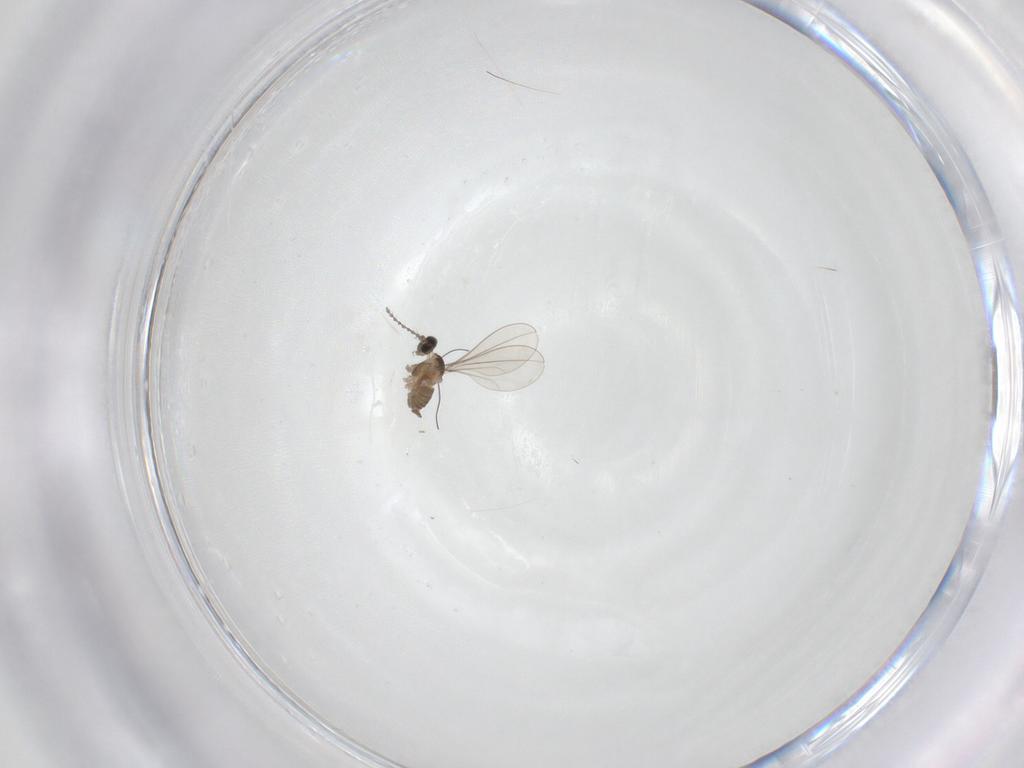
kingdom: Animalia
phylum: Arthropoda
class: Insecta
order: Diptera
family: Cecidomyiidae
